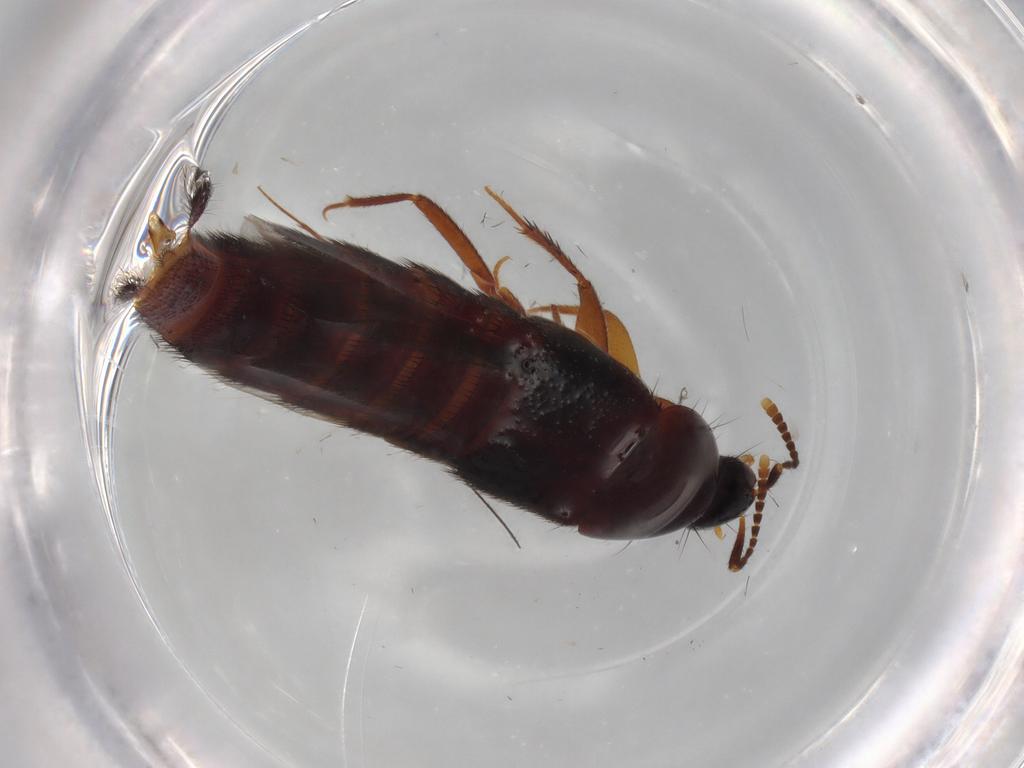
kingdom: Animalia
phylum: Arthropoda
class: Insecta
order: Coleoptera
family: Staphylinidae
